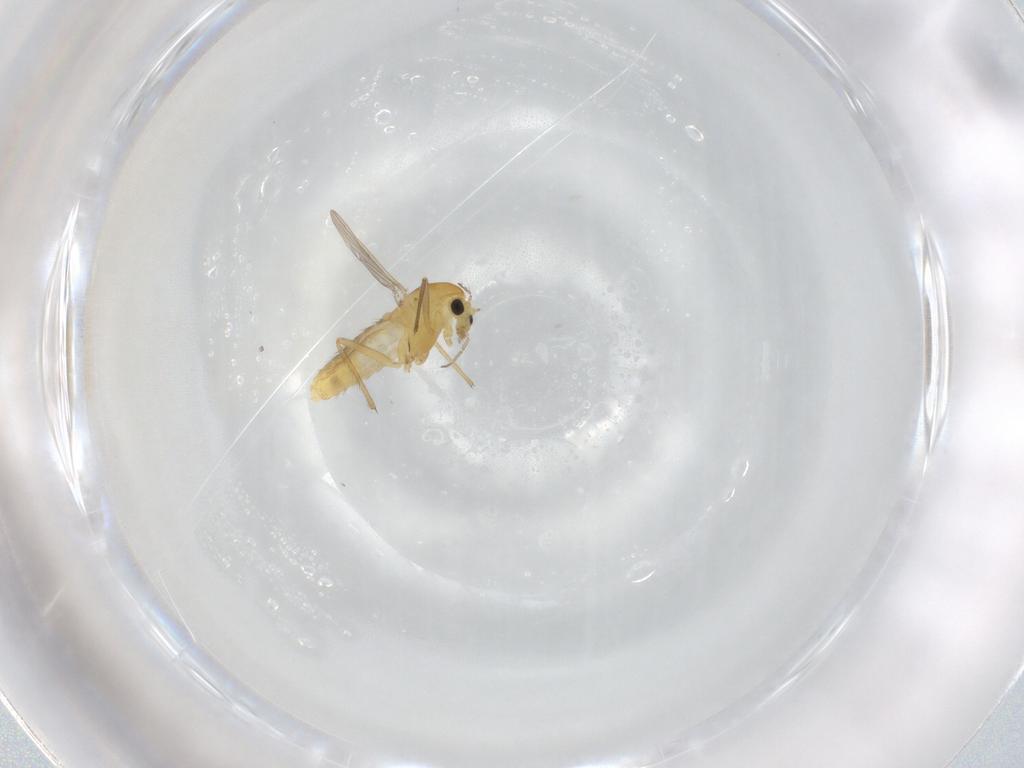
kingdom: Animalia
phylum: Arthropoda
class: Insecta
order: Diptera
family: Chironomidae
